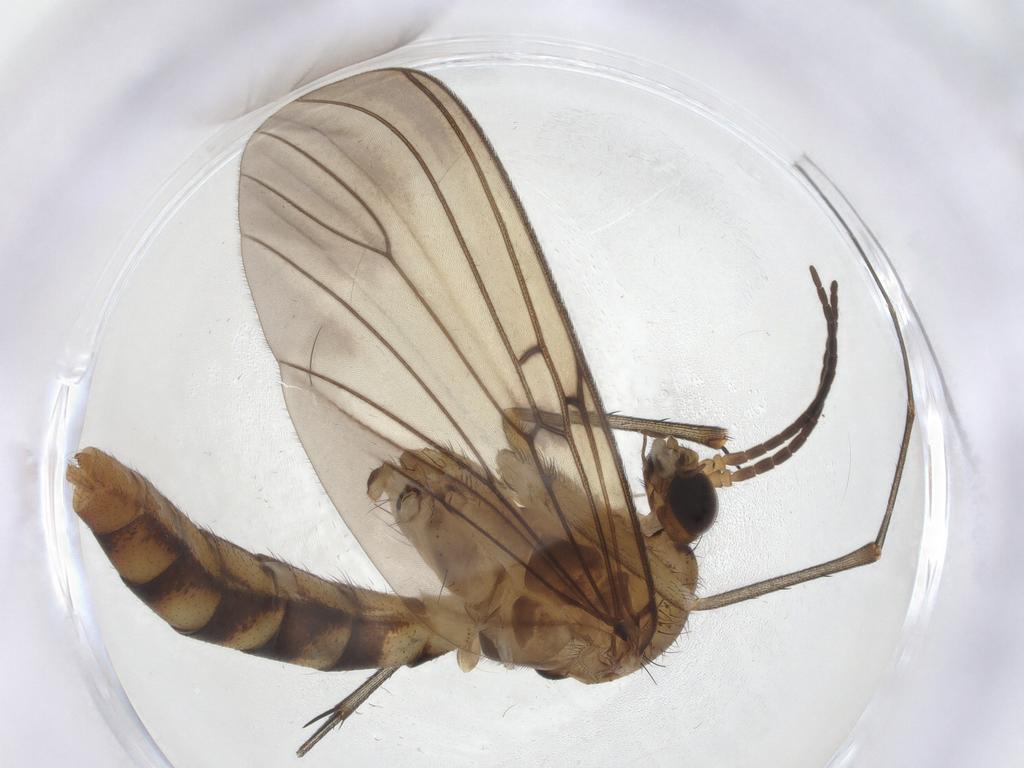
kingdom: Animalia
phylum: Arthropoda
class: Insecta
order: Diptera
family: Mycetophilidae
